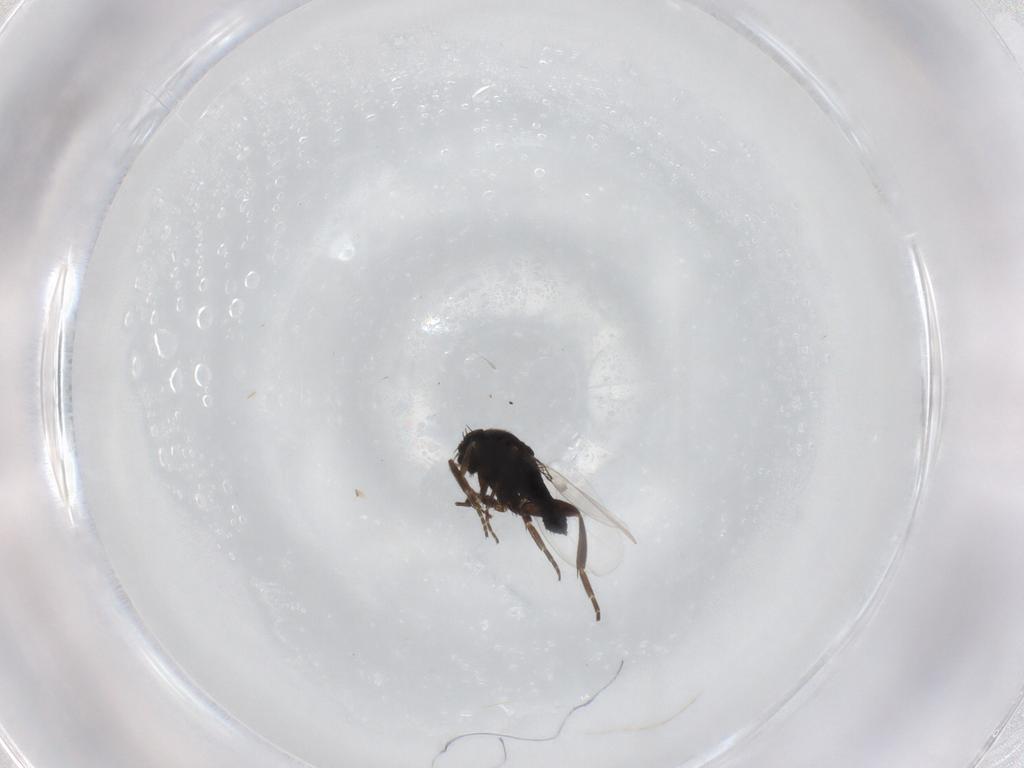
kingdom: Animalia
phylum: Arthropoda
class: Insecta
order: Diptera
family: Phoridae
